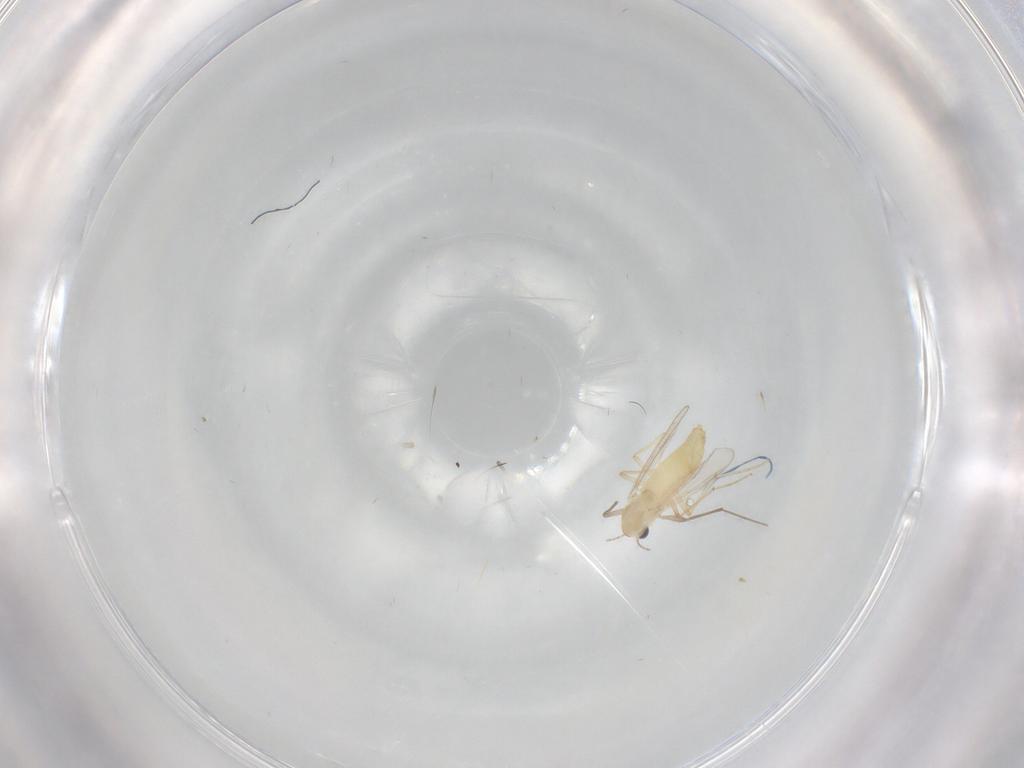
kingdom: Animalia
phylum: Arthropoda
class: Insecta
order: Diptera
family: Chironomidae
